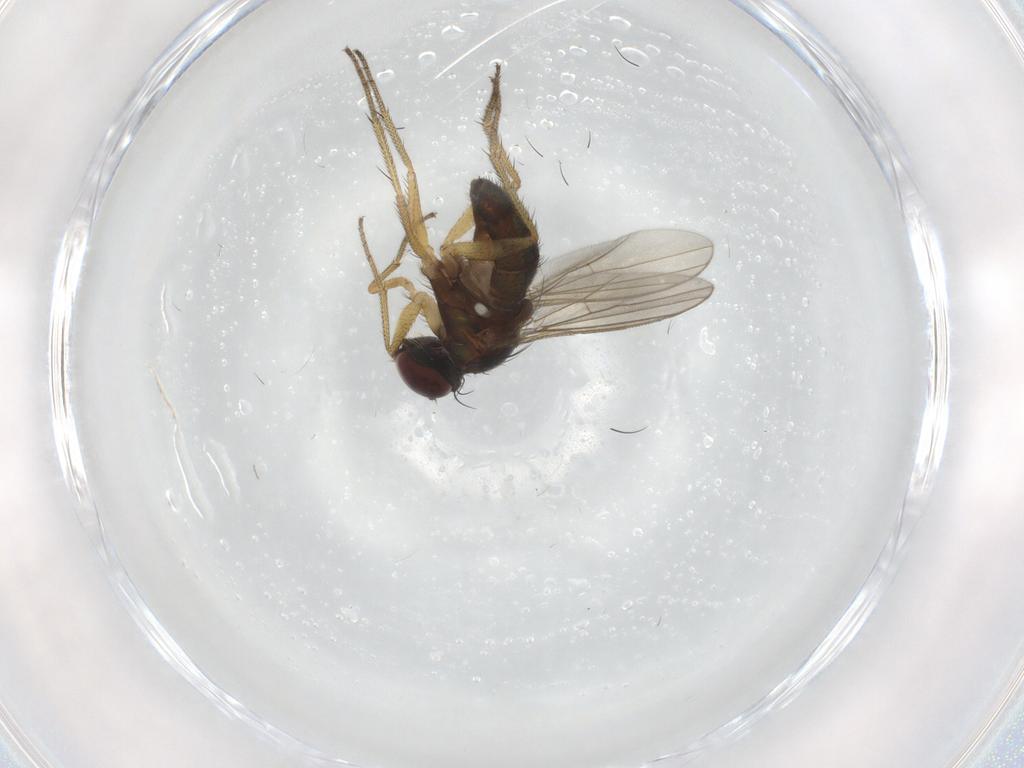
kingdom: Animalia
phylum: Arthropoda
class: Insecta
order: Diptera
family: Dolichopodidae
